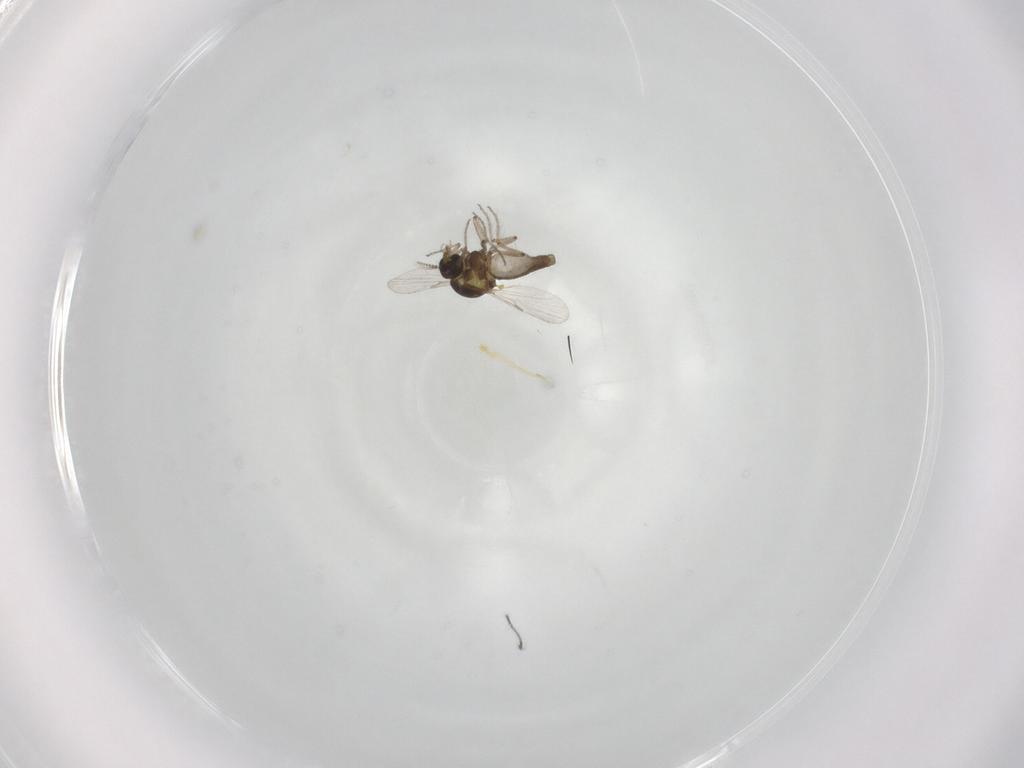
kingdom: Animalia
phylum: Arthropoda
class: Insecta
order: Diptera
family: Ceratopogonidae
